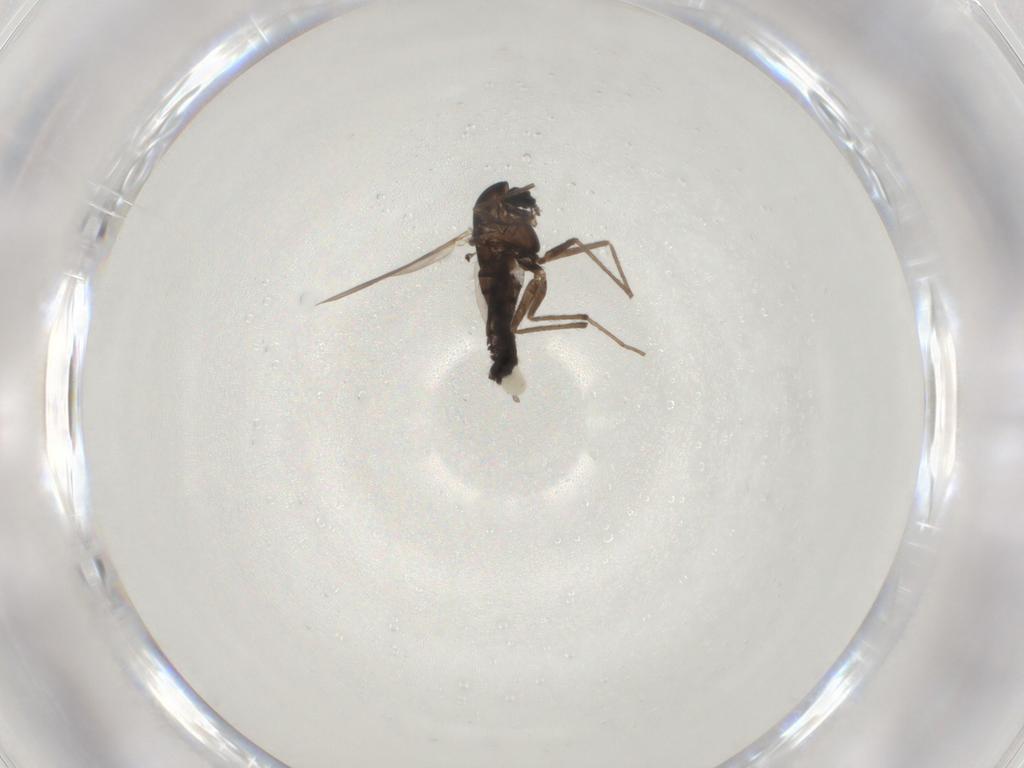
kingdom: Animalia
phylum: Arthropoda
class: Insecta
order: Diptera
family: Chironomidae
